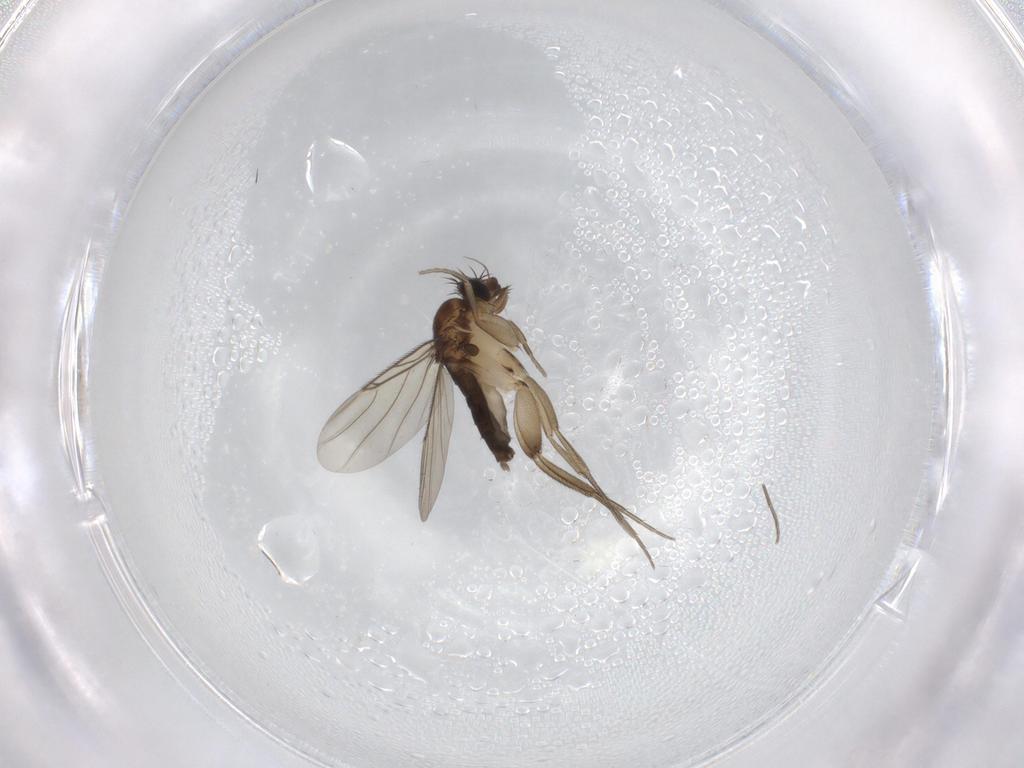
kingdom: Animalia
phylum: Arthropoda
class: Insecta
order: Diptera
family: Phoridae
